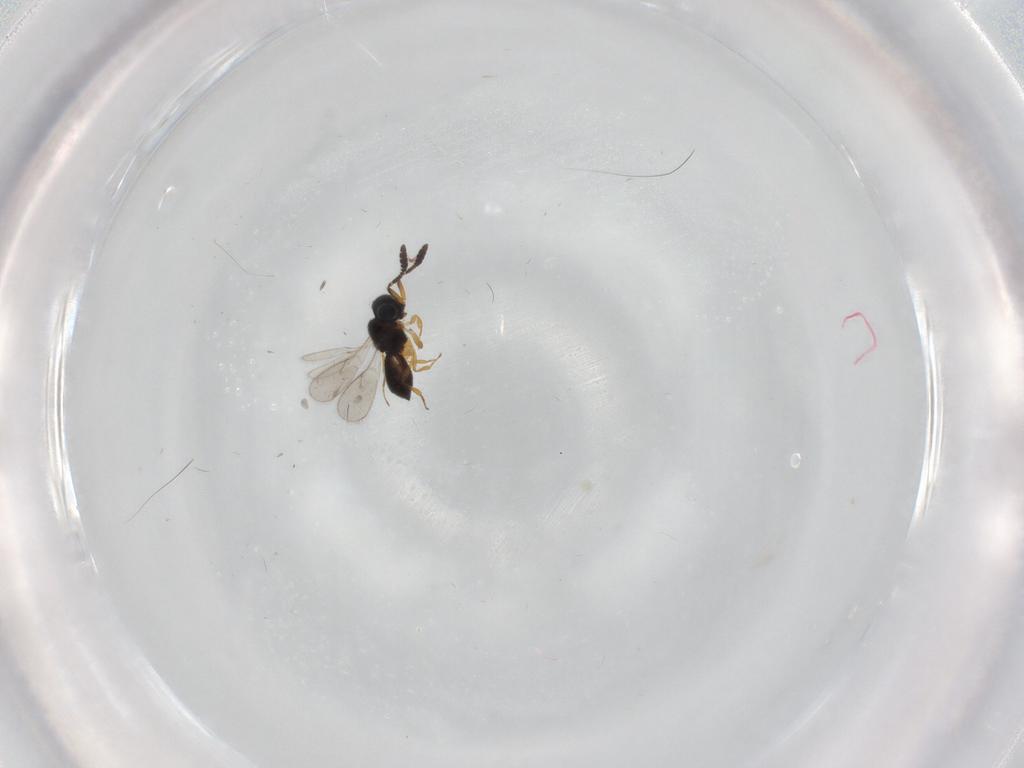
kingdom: Animalia
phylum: Arthropoda
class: Insecta
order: Hymenoptera
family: Scelionidae
